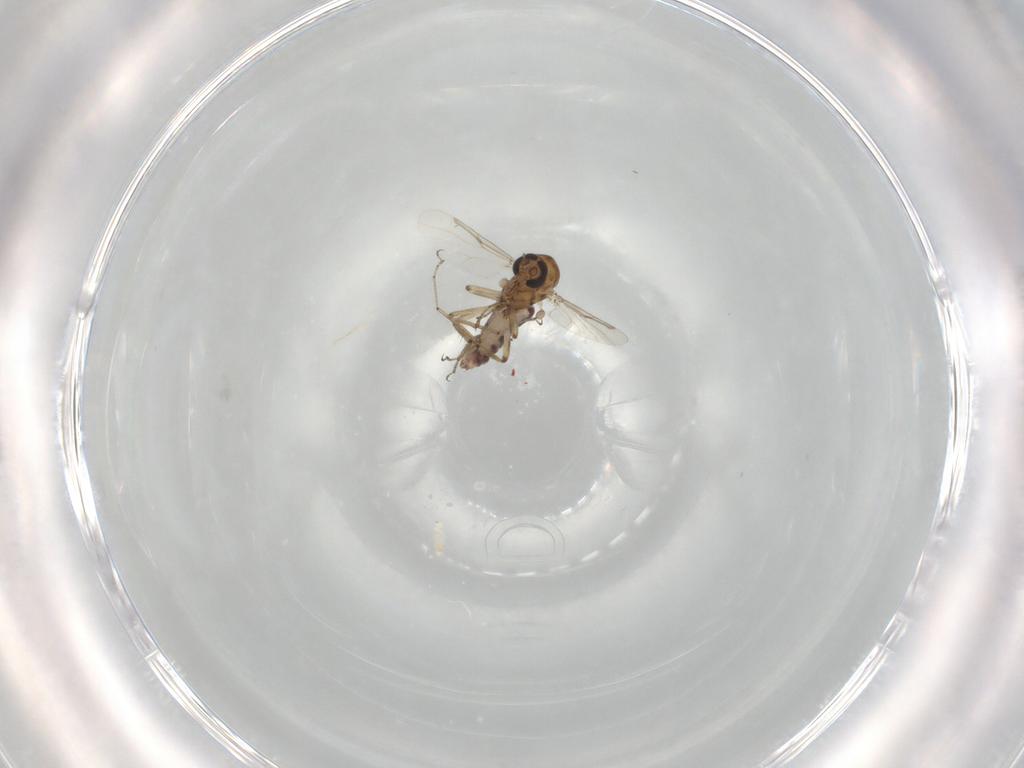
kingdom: Animalia
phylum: Arthropoda
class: Insecta
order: Diptera
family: Ceratopogonidae
